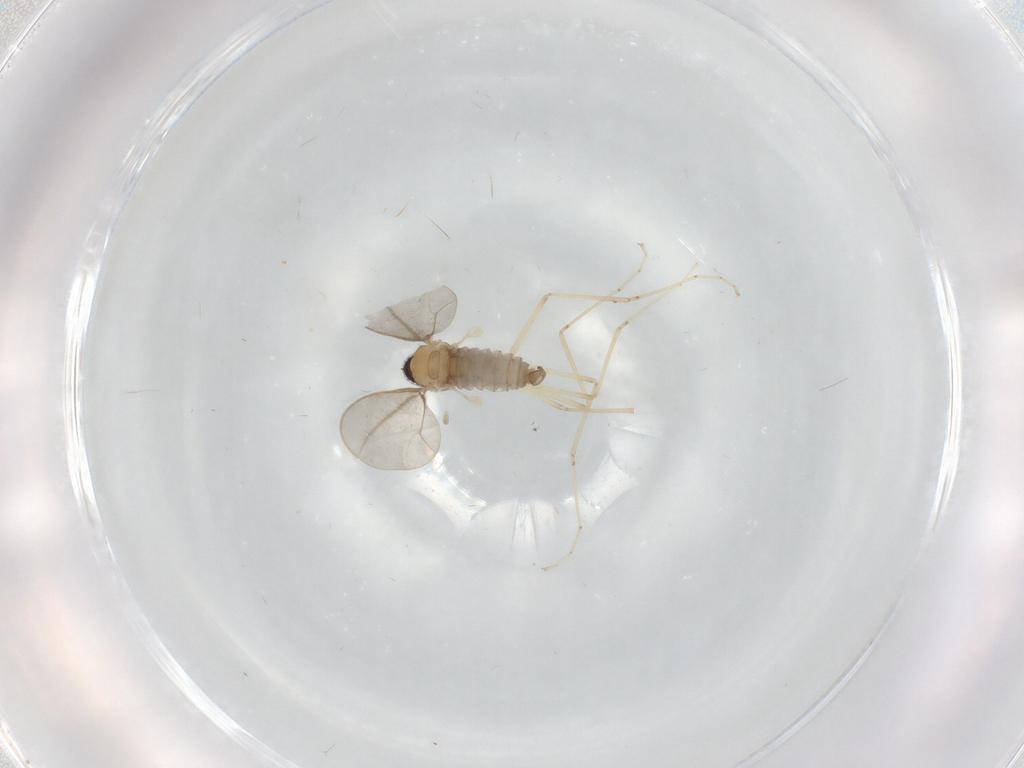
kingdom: Animalia
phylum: Arthropoda
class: Insecta
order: Diptera
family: Cecidomyiidae
